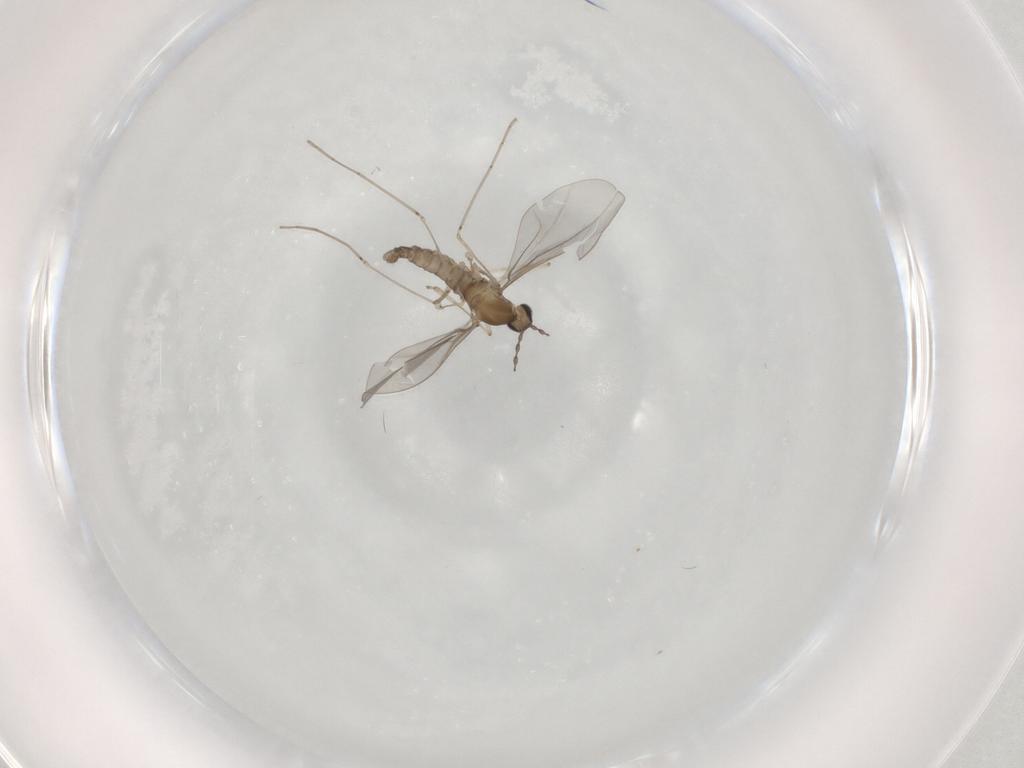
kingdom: Animalia
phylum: Arthropoda
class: Insecta
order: Diptera
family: Cecidomyiidae
